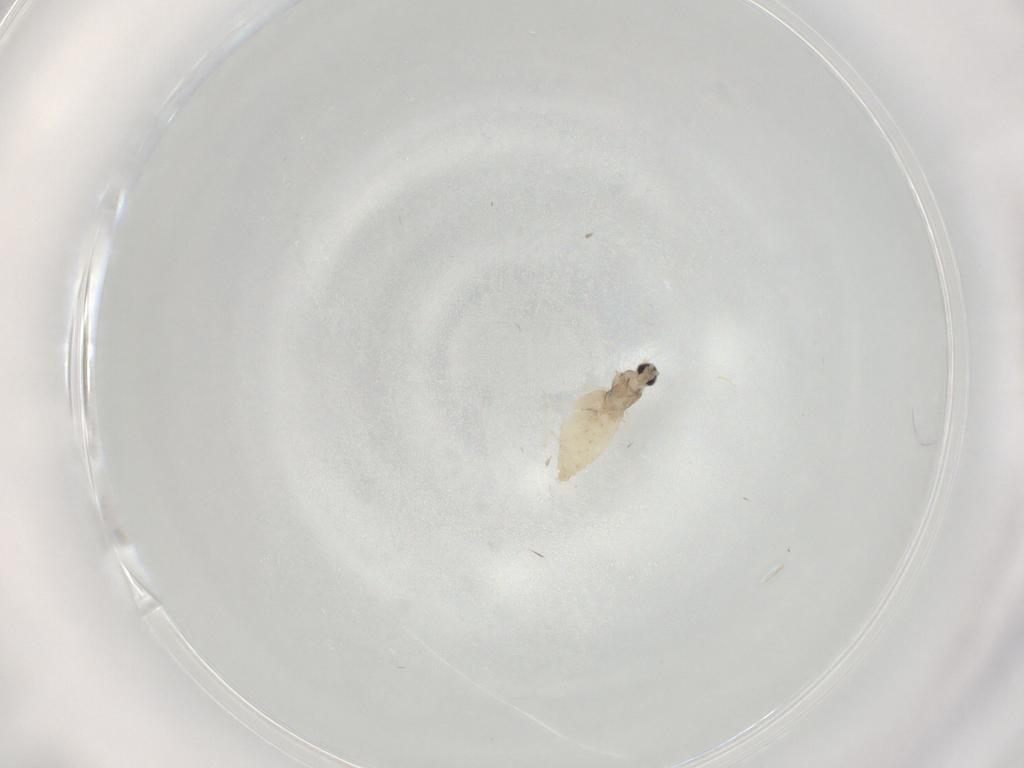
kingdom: Animalia
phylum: Arthropoda
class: Insecta
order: Diptera
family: Cecidomyiidae
